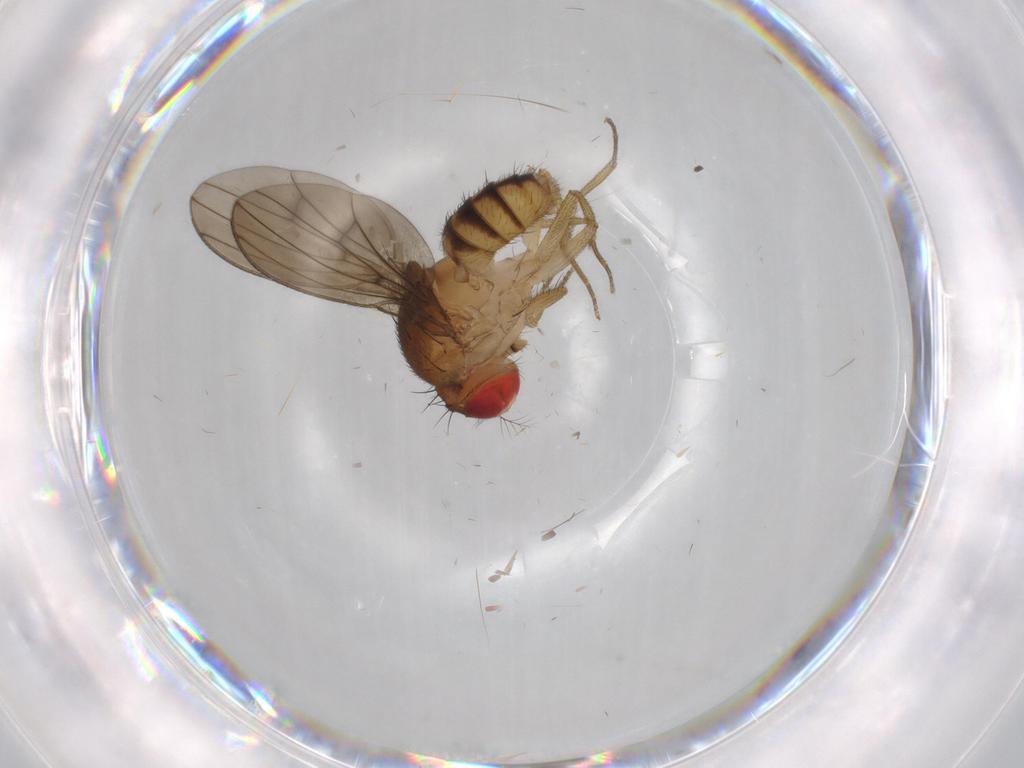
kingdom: Animalia
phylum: Arthropoda
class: Insecta
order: Diptera
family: Drosophilidae
